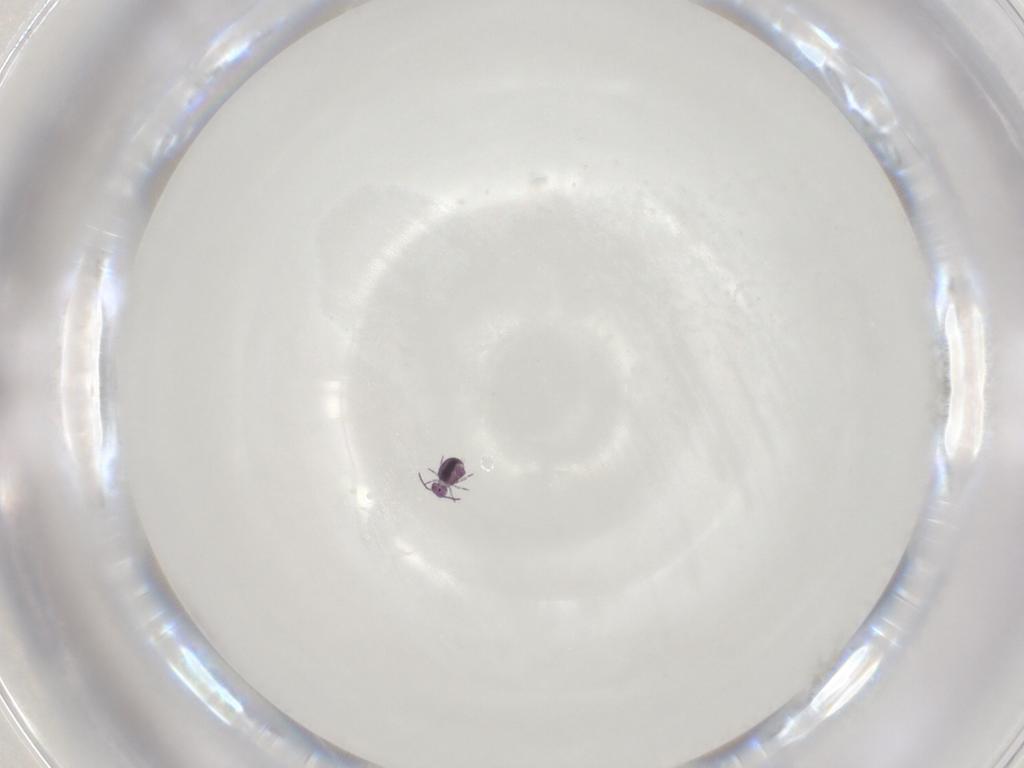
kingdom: Animalia
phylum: Arthropoda
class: Insecta
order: Lepidoptera
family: Elachistidae
